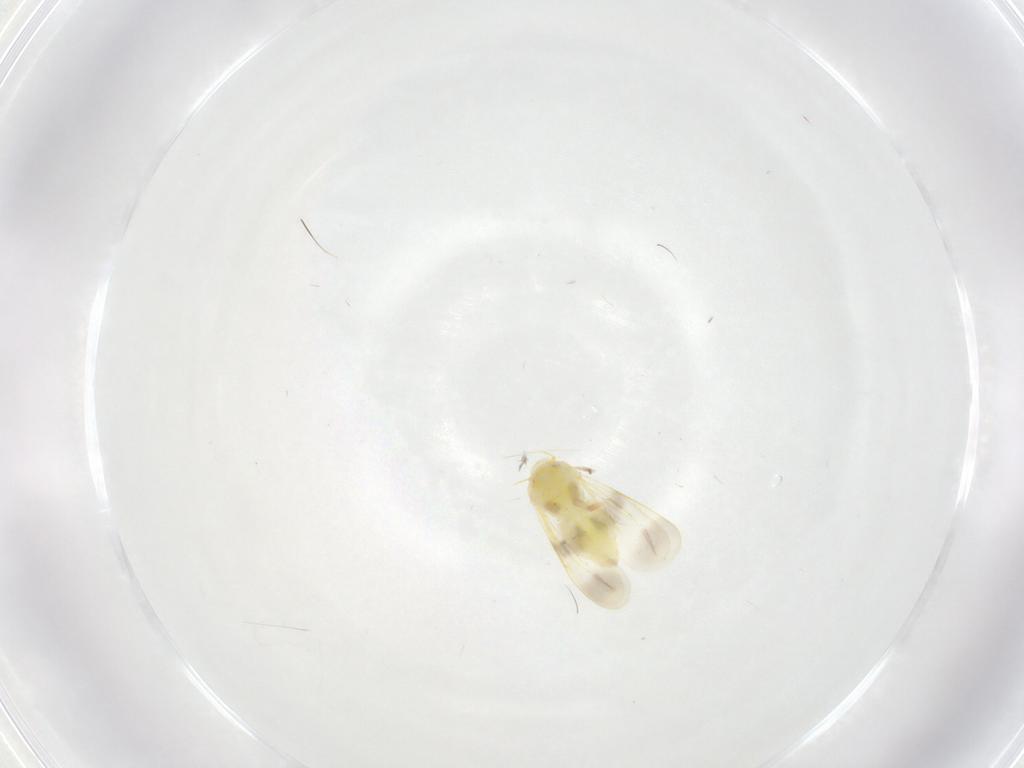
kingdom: Animalia
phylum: Arthropoda
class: Insecta
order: Hemiptera
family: Aleyrodidae
